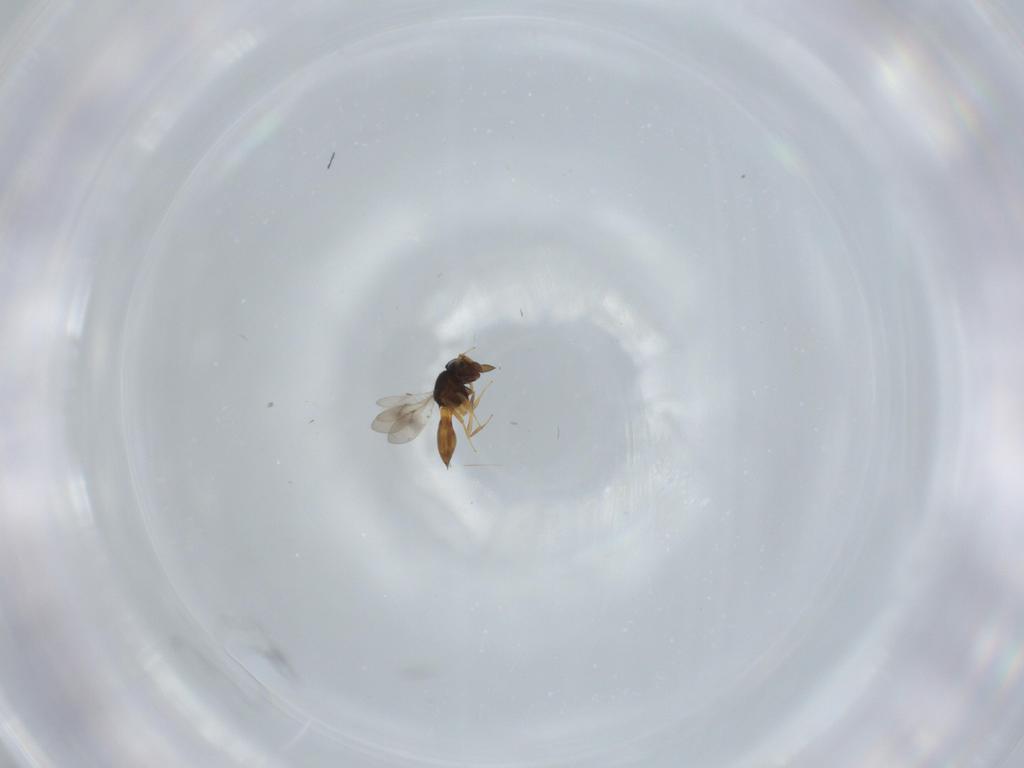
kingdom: Animalia
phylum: Arthropoda
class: Insecta
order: Hymenoptera
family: Scelionidae
